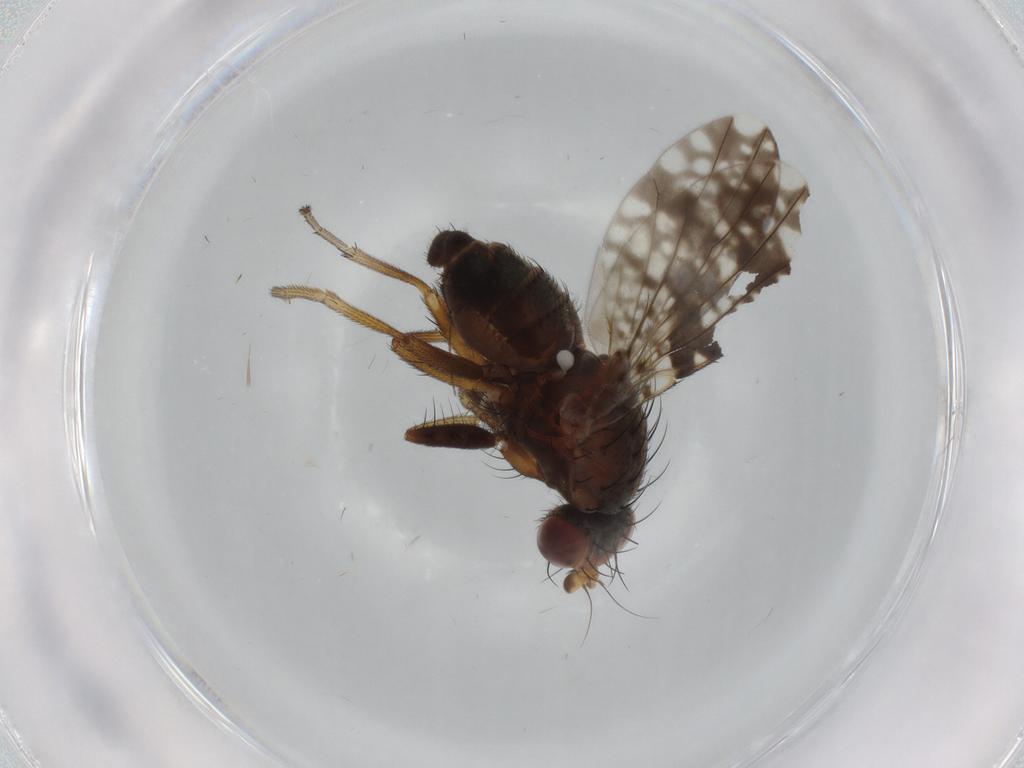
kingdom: Animalia
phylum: Arthropoda
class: Insecta
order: Diptera
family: Tephritidae
